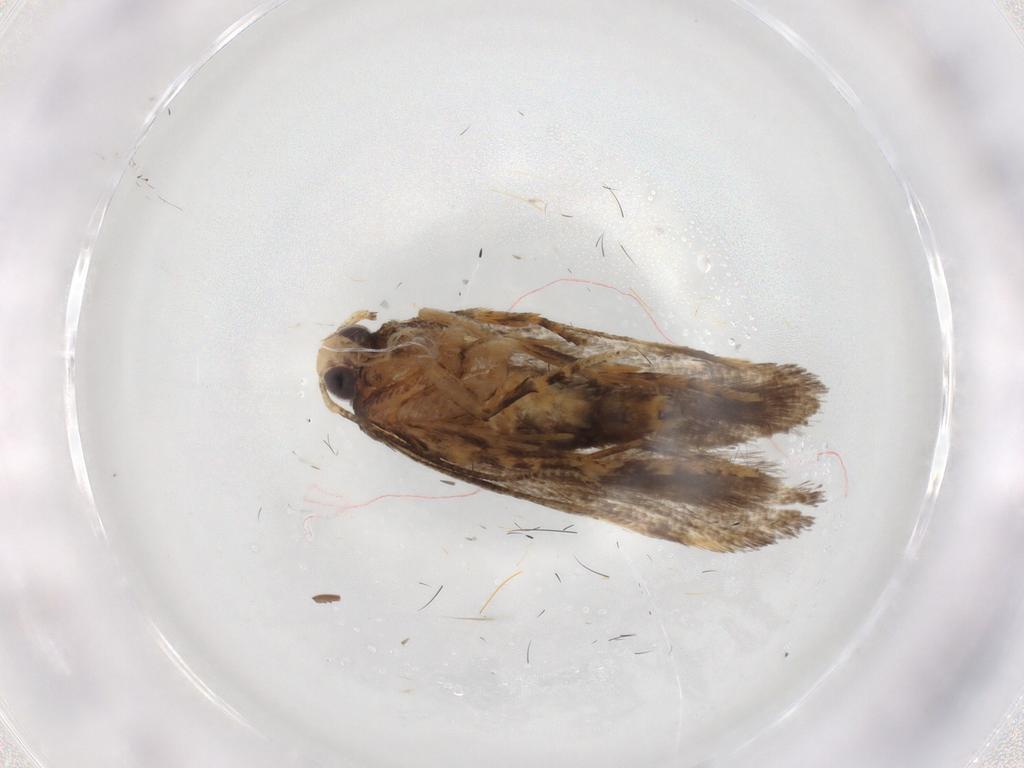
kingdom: Animalia
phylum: Arthropoda
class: Insecta
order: Lepidoptera
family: Gelechiidae
